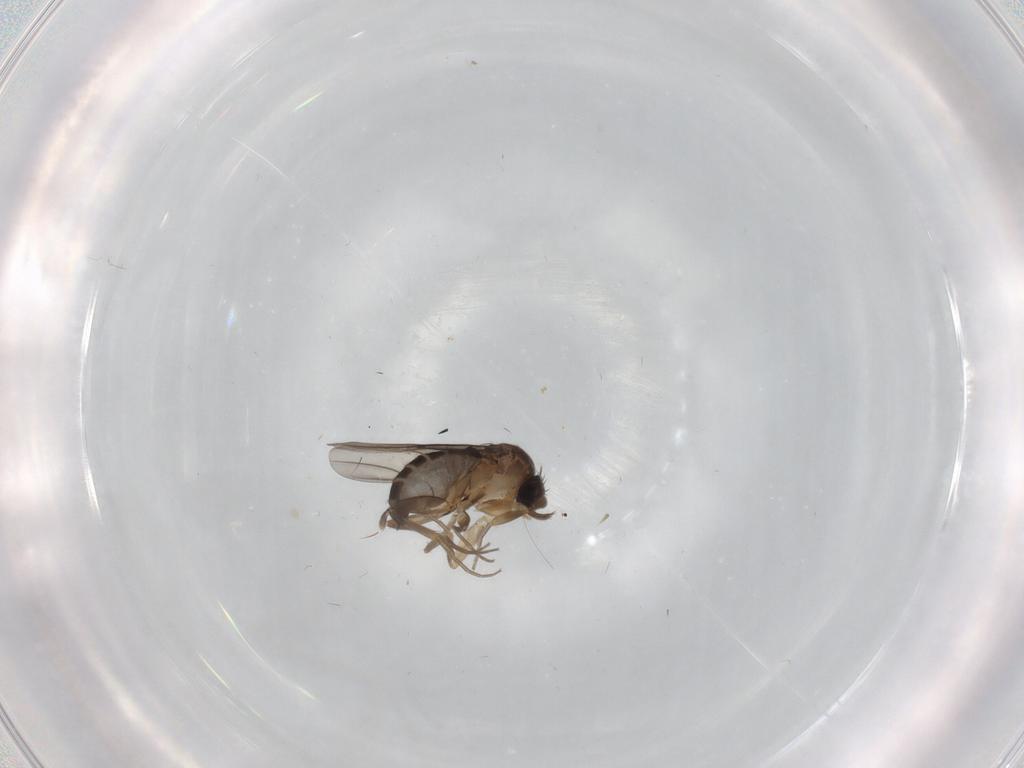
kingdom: Animalia
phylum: Arthropoda
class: Insecta
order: Diptera
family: Phoridae
